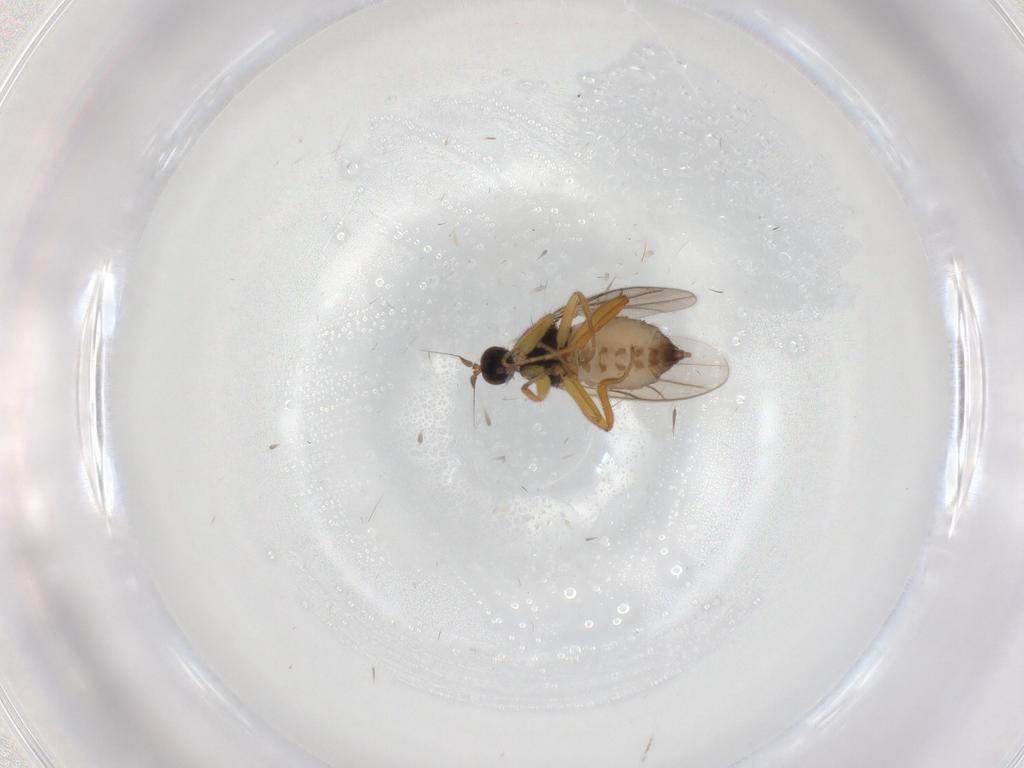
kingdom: Animalia
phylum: Arthropoda
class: Insecta
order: Diptera
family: Hybotidae
